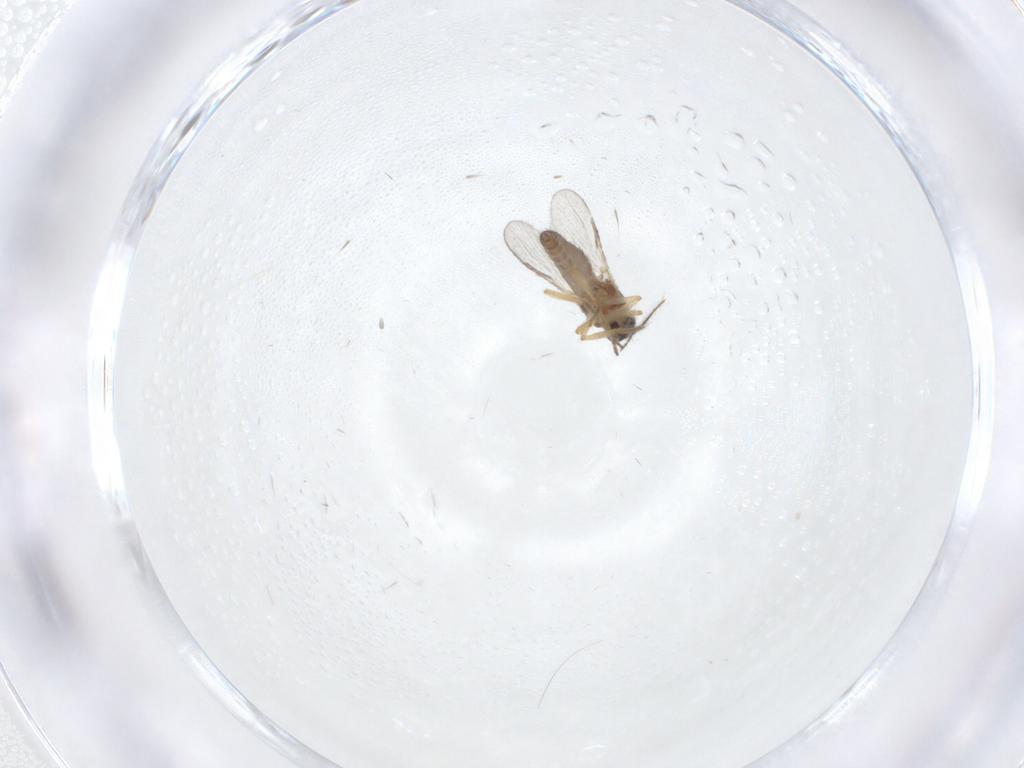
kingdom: Animalia
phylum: Arthropoda
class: Insecta
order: Diptera
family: Ceratopogonidae
